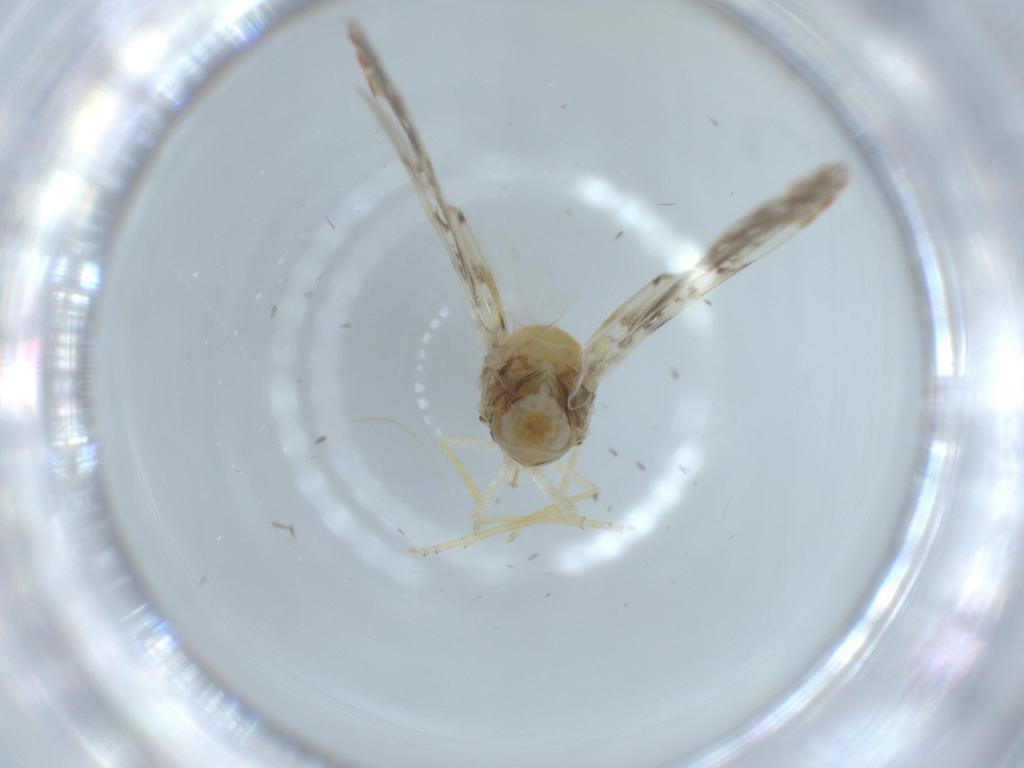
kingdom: Animalia
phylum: Arthropoda
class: Insecta
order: Hemiptera
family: Derbidae
